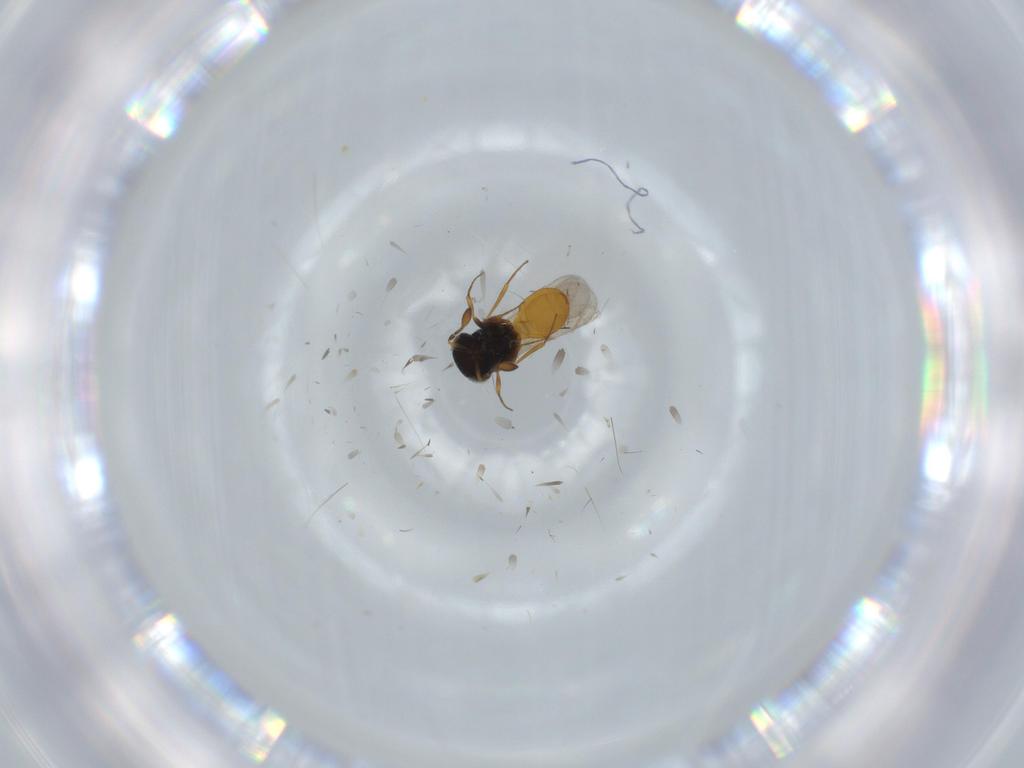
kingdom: Animalia
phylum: Arthropoda
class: Insecta
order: Hymenoptera
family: Scelionidae
